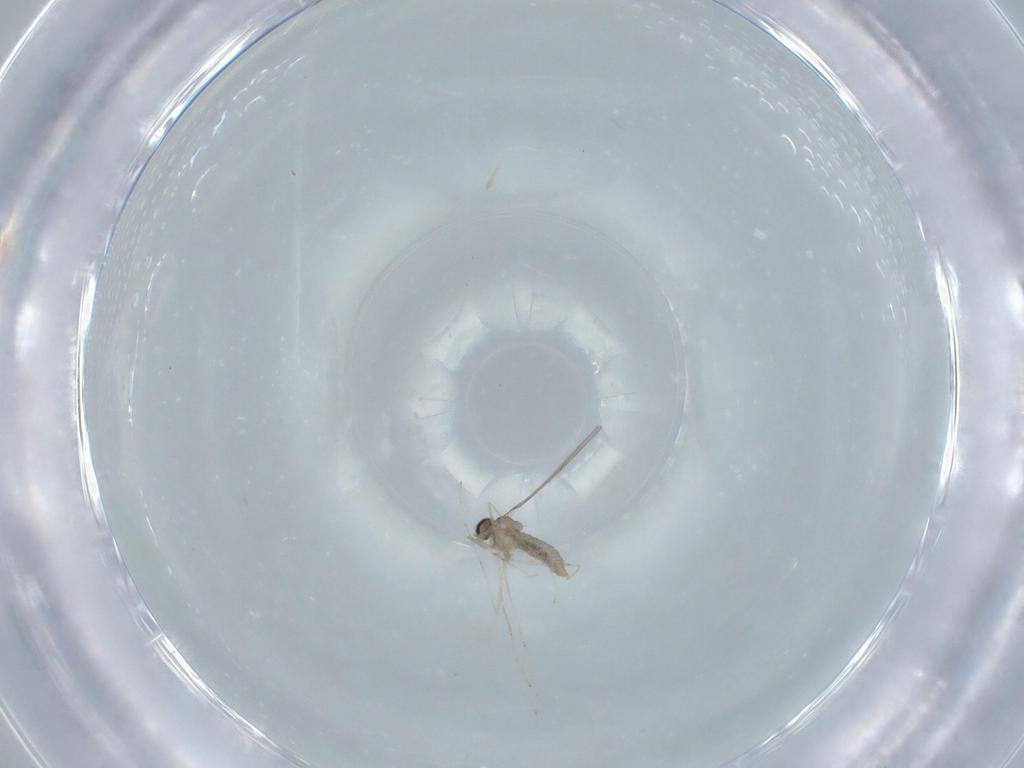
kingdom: Animalia
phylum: Arthropoda
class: Insecta
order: Diptera
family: Cecidomyiidae
